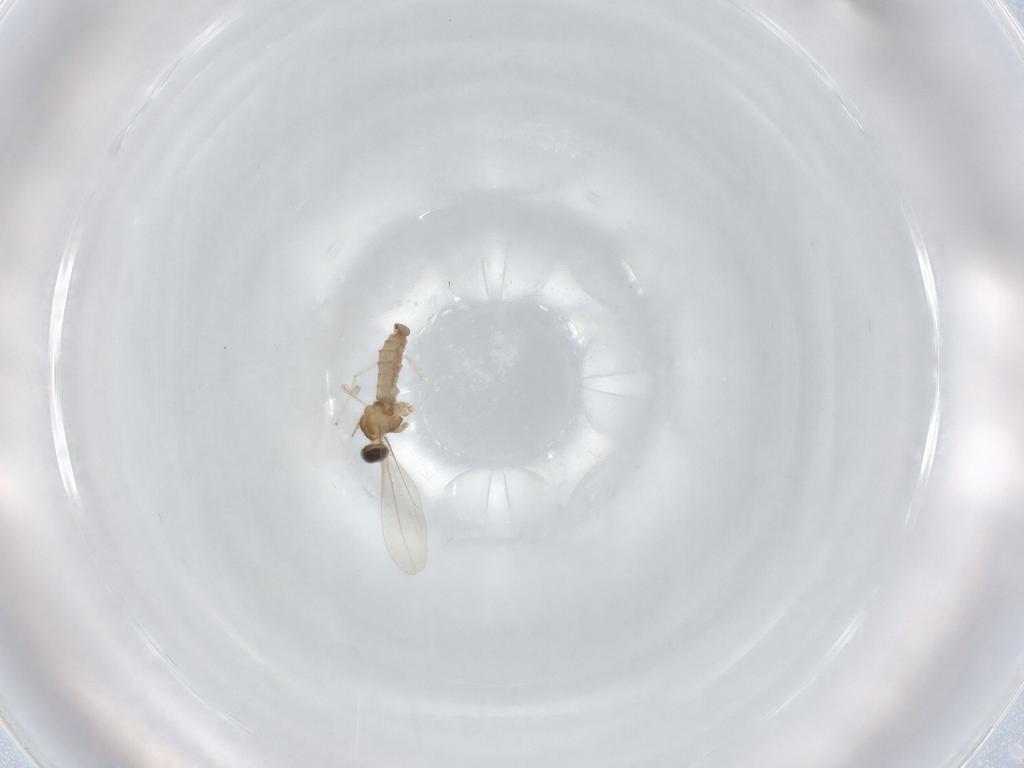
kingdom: Animalia
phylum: Arthropoda
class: Insecta
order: Diptera
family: Cecidomyiidae
